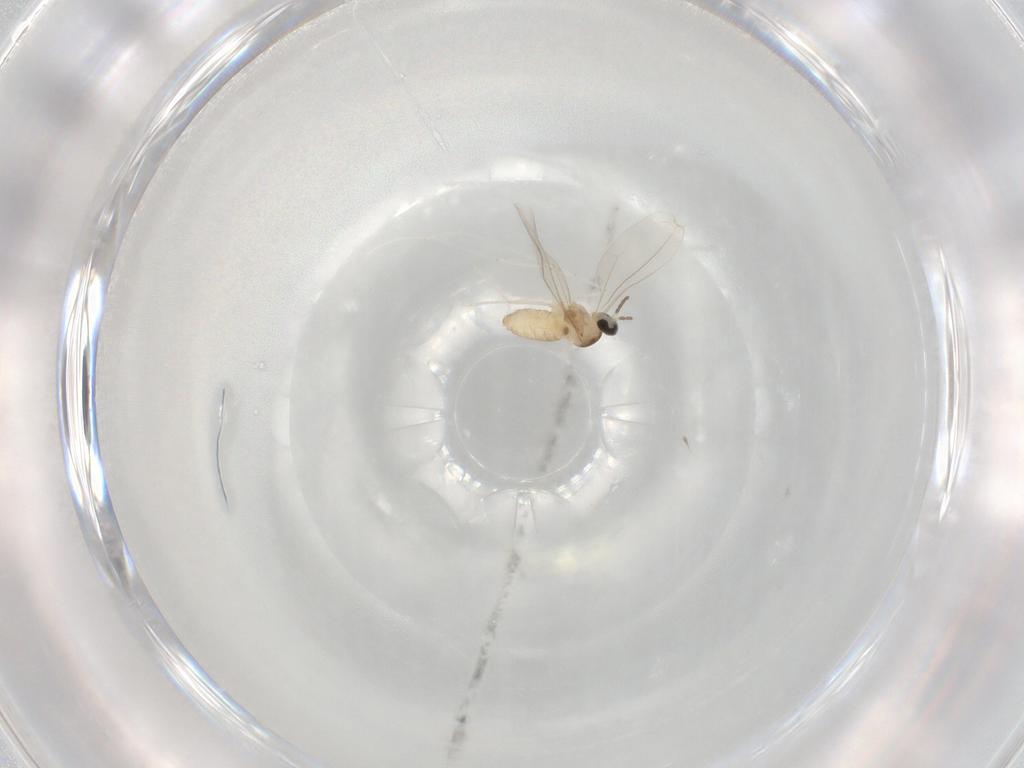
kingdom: Animalia
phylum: Arthropoda
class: Insecta
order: Diptera
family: Cecidomyiidae
